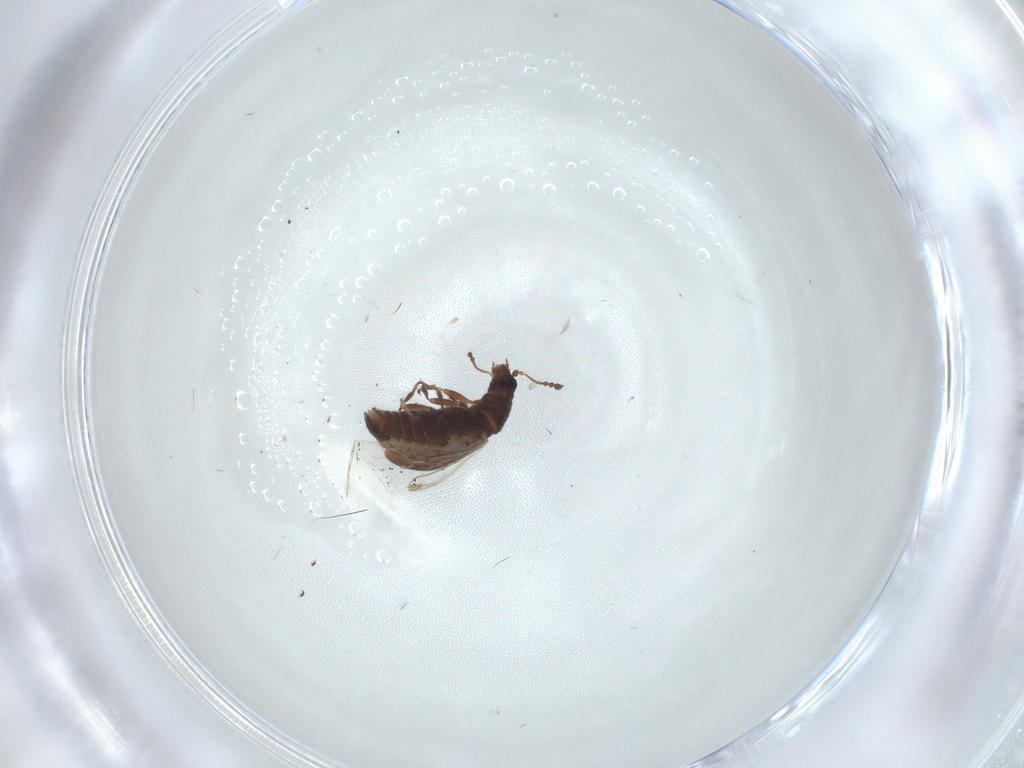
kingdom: Animalia
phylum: Arthropoda
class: Insecta
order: Coleoptera
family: Latridiidae
